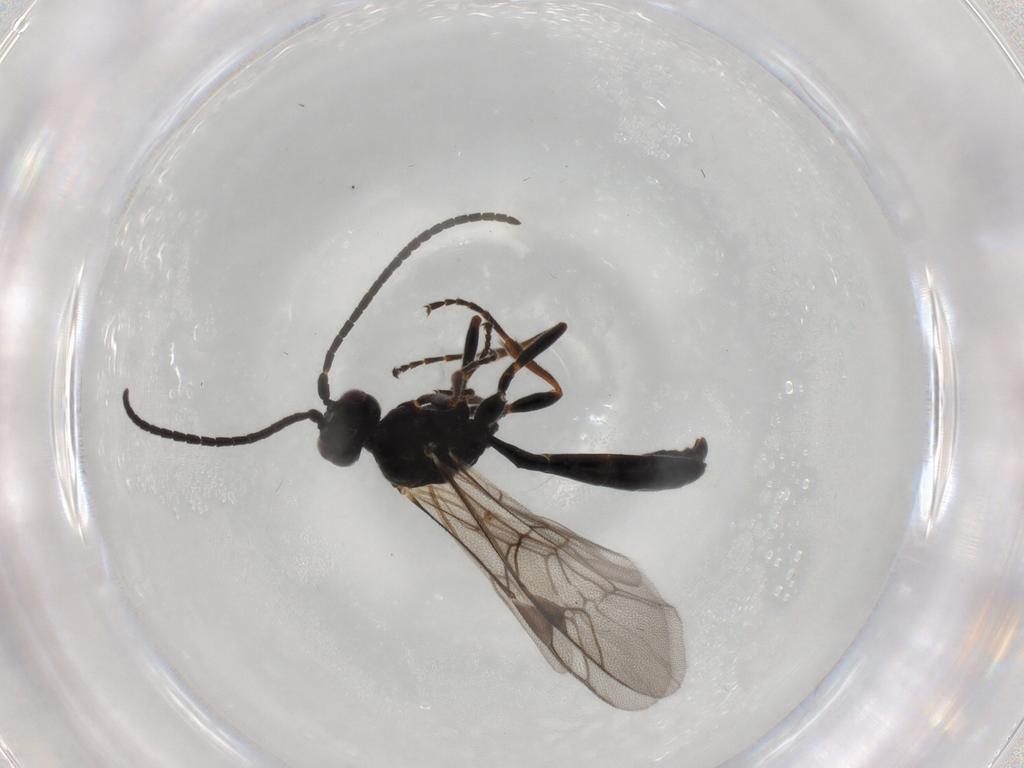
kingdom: Animalia
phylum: Arthropoda
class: Insecta
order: Hymenoptera
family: Ichneumonidae
